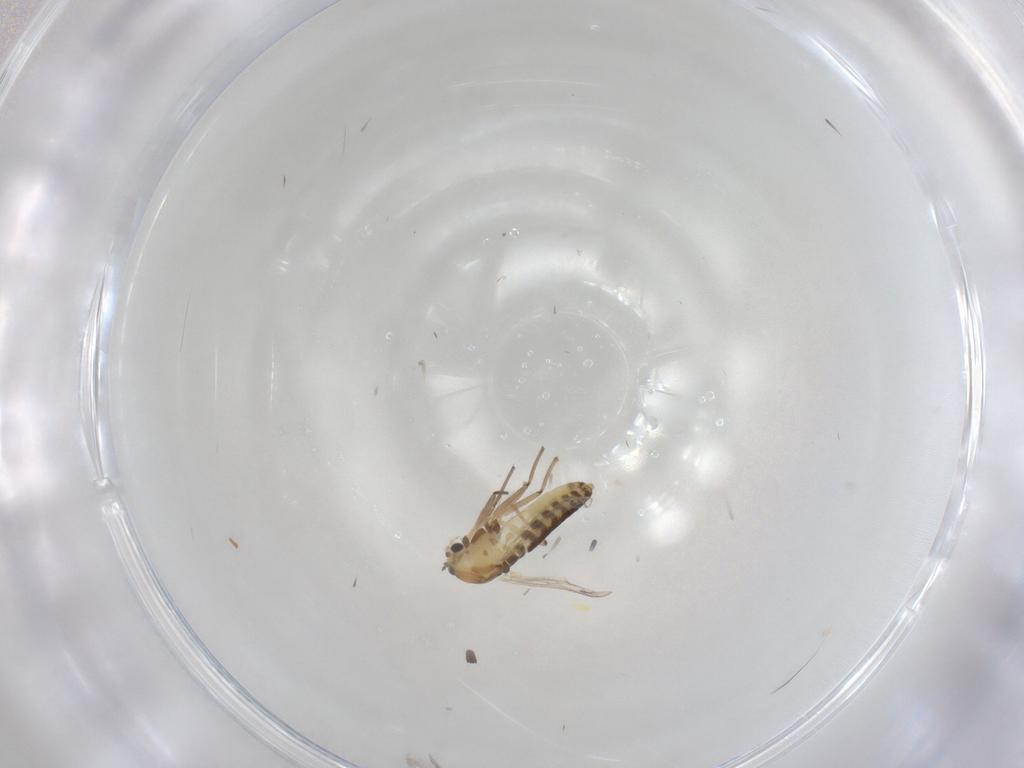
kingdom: Animalia
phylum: Arthropoda
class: Insecta
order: Diptera
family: Chironomidae
